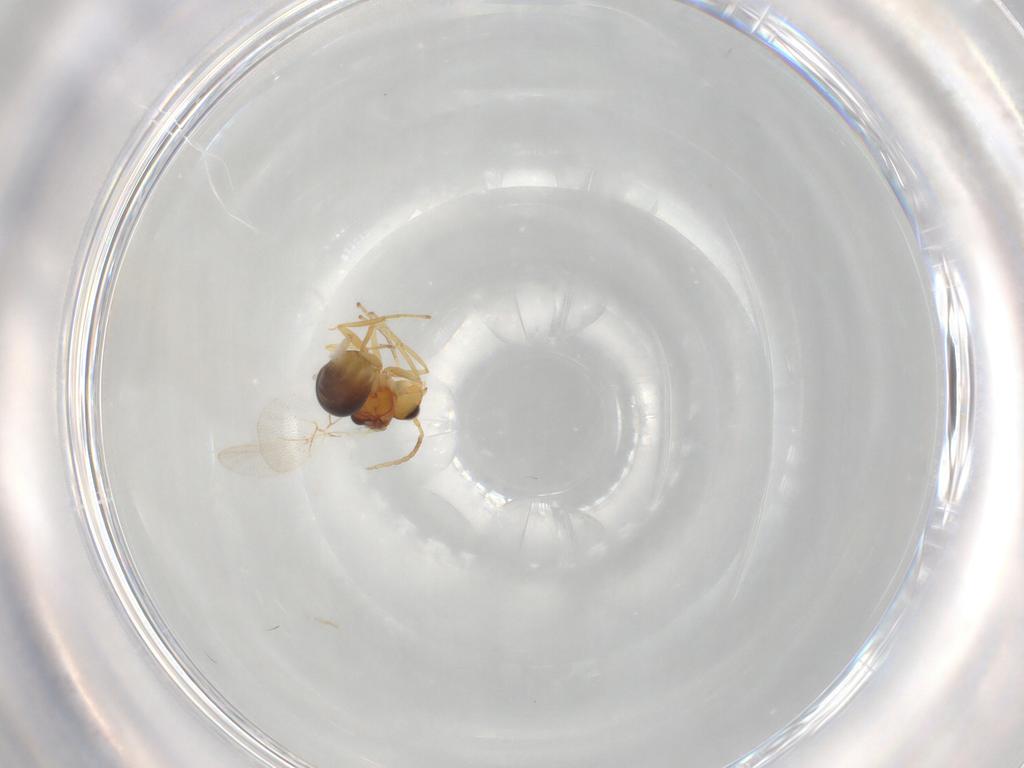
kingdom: Animalia
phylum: Arthropoda
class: Insecta
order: Hymenoptera
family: Figitidae
